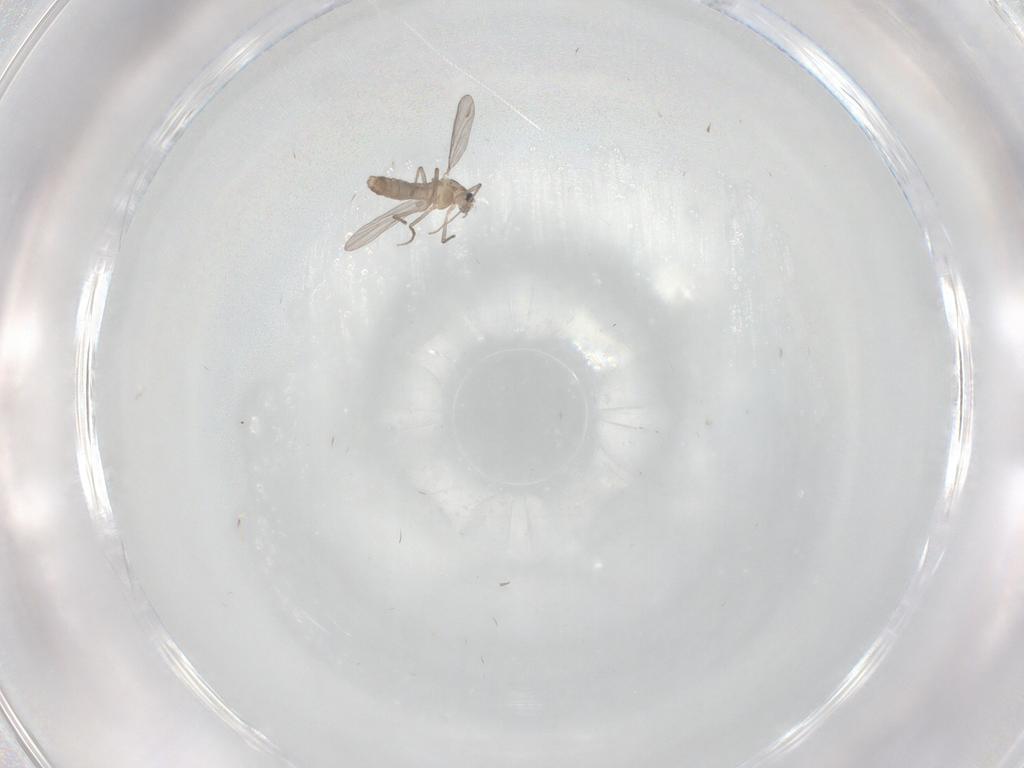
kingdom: Animalia
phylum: Arthropoda
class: Insecta
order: Diptera
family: Chironomidae
